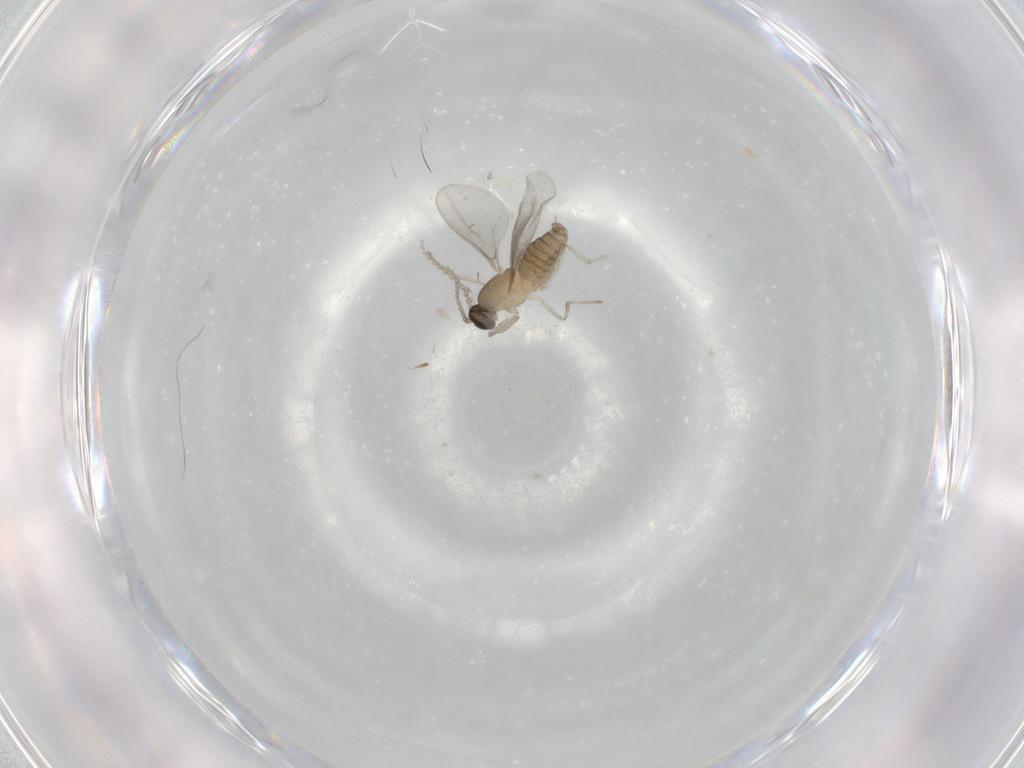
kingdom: Animalia
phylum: Arthropoda
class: Insecta
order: Diptera
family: Cecidomyiidae
